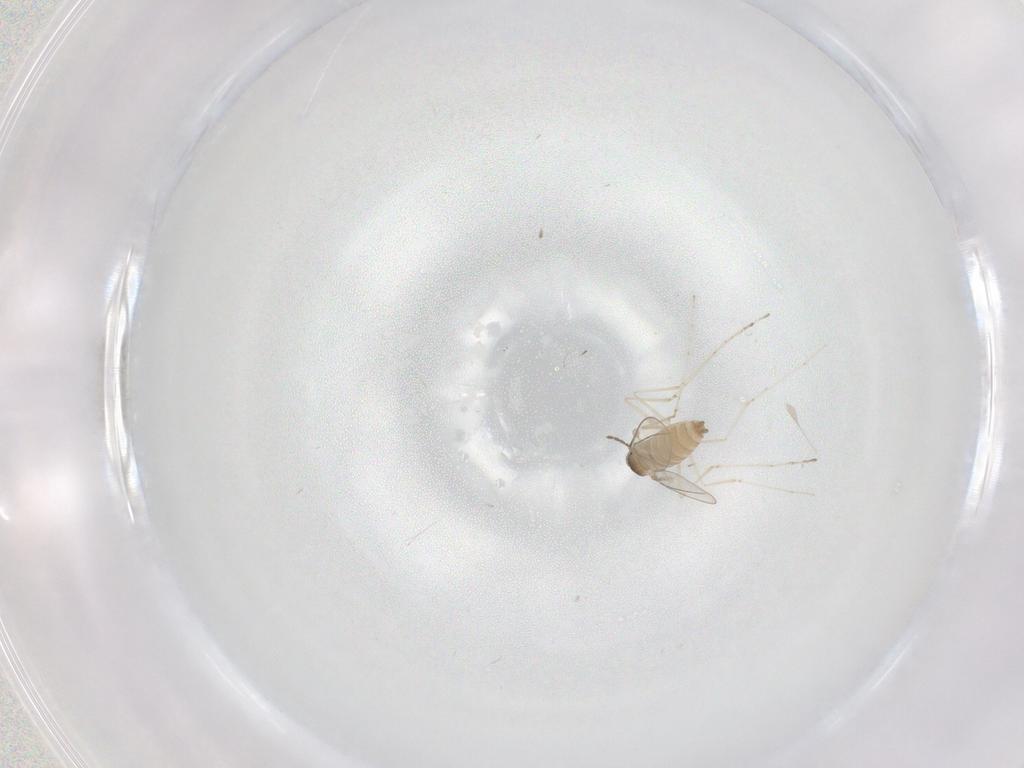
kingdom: Animalia
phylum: Arthropoda
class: Insecta
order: Diptera
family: Cecidomyiidae
